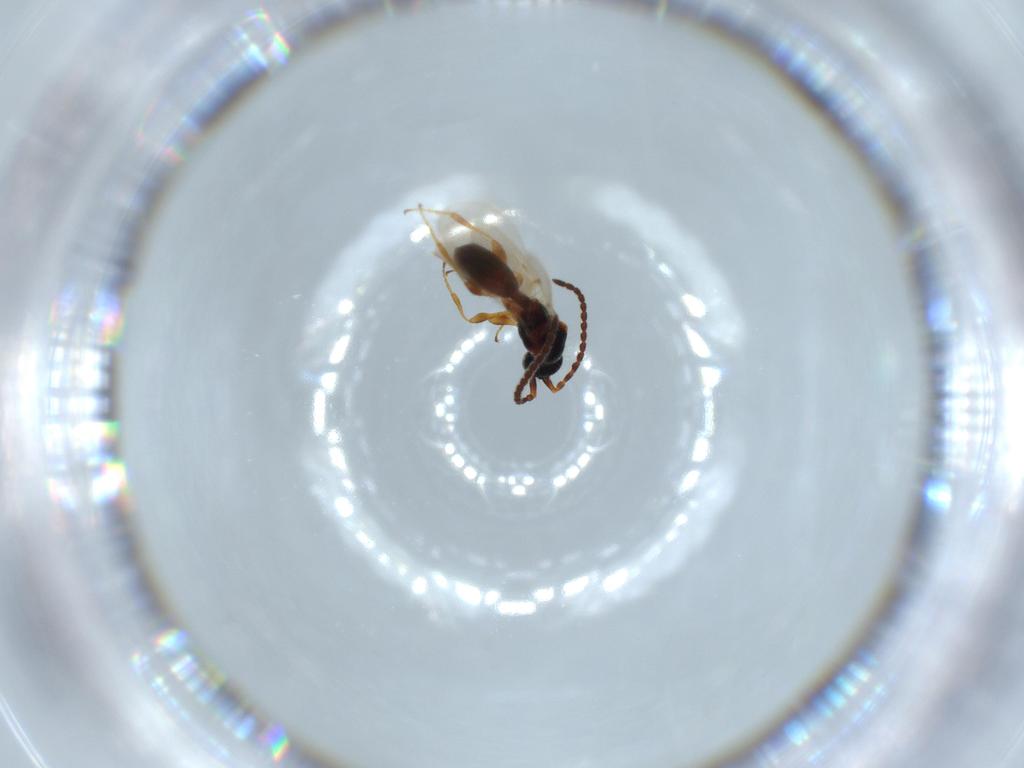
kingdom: Animalia
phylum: Arthropoda
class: Insecta
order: Hymenoptera
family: Diapriidae
